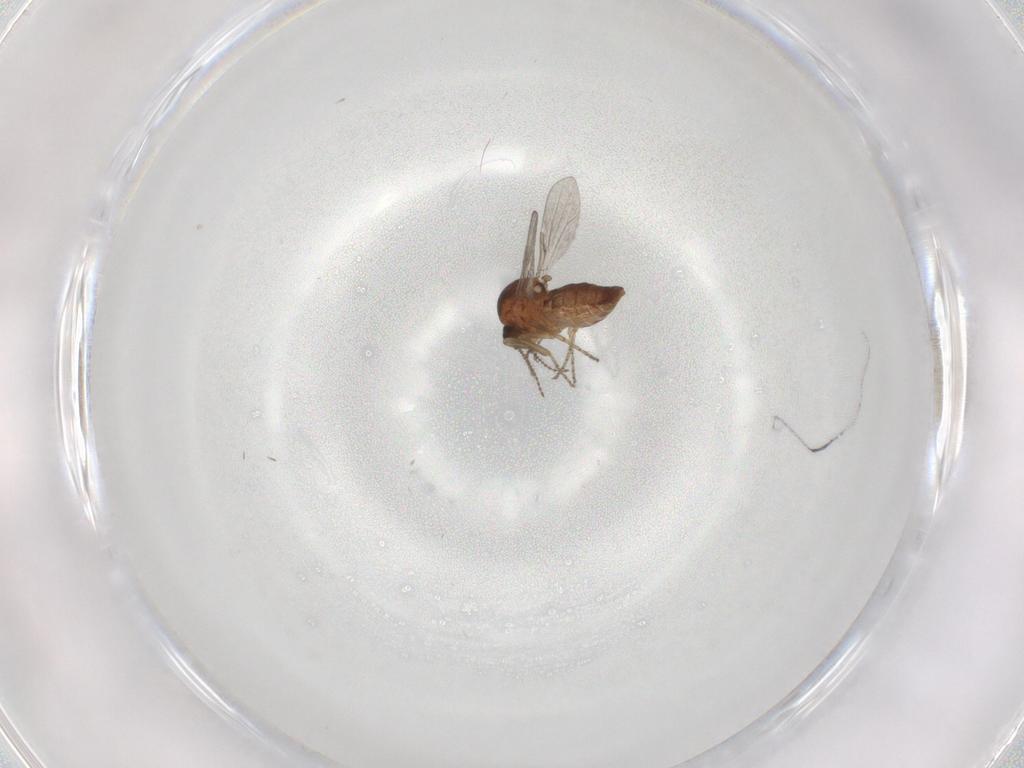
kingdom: Animalia
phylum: Arthropoda
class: Insecta
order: Diptera
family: Ceratopogonidae
